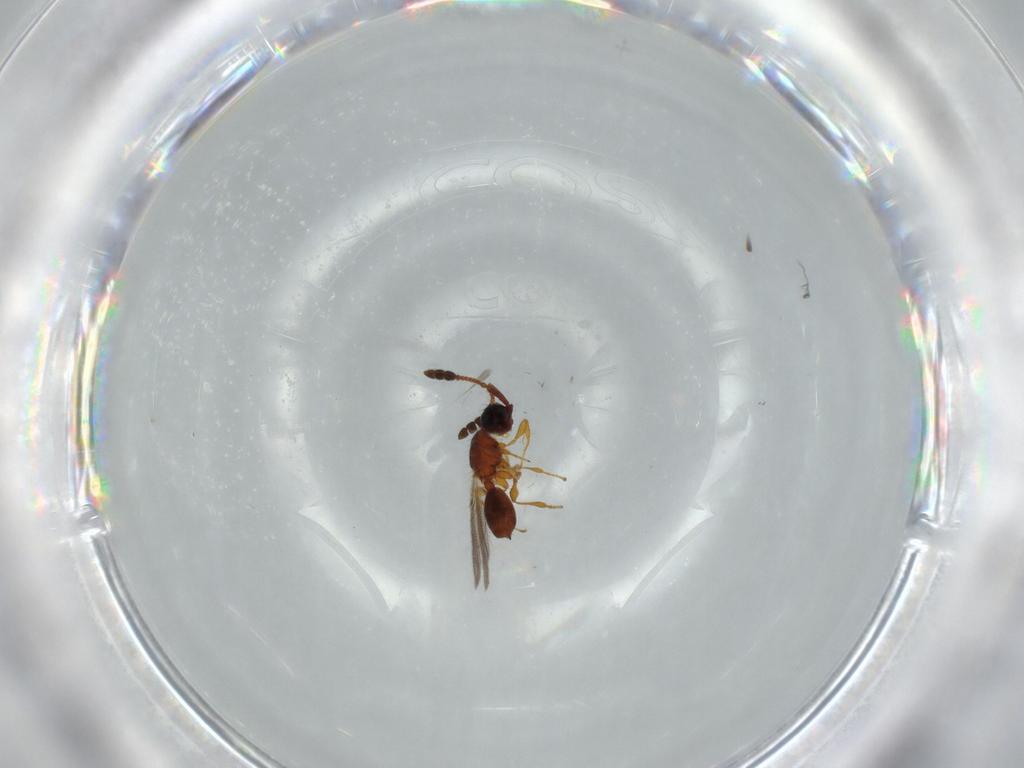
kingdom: Animalia
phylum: Arthropoda
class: Insecta
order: Hymenoptera
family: Diapriidae
